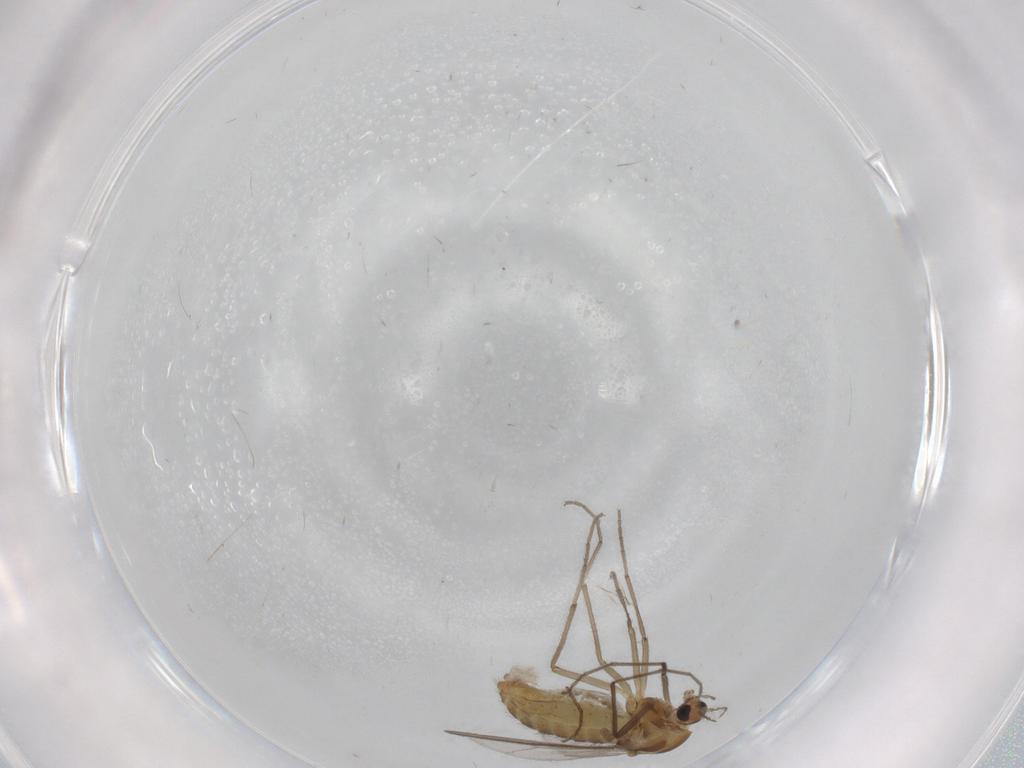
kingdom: Animalia
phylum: Arthropoda
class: Insecta
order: Diptera
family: Chironomidae
